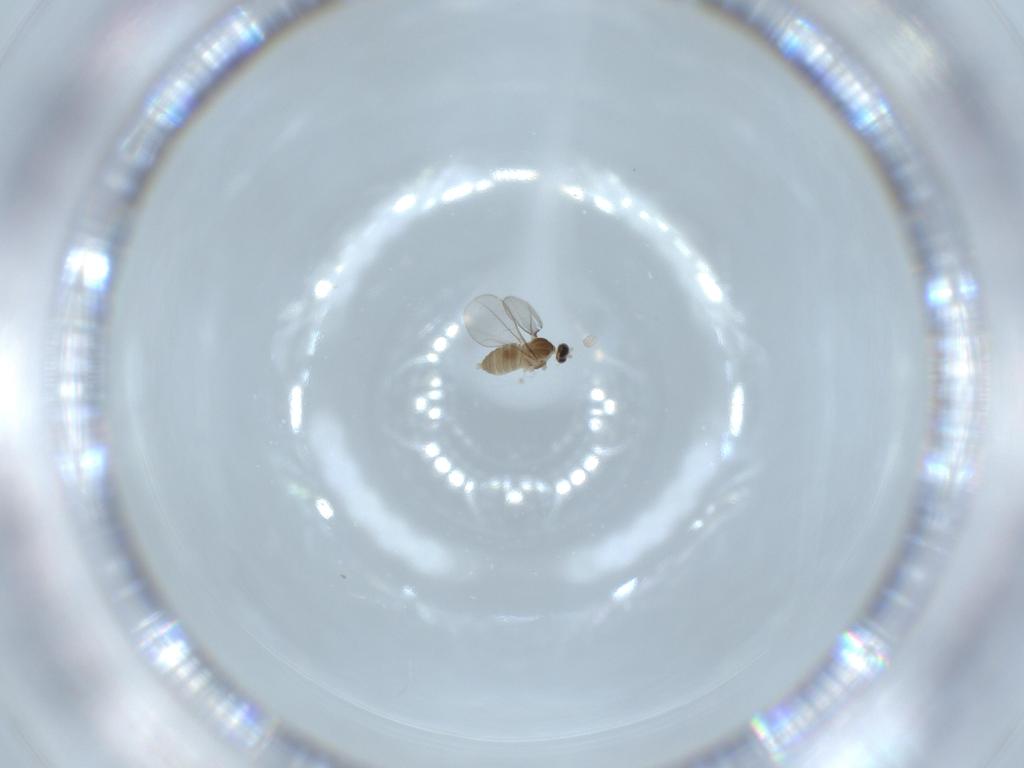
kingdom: Animalia
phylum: Arthropoda
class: Insecta
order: Diptera
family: Cecidomyiidae
